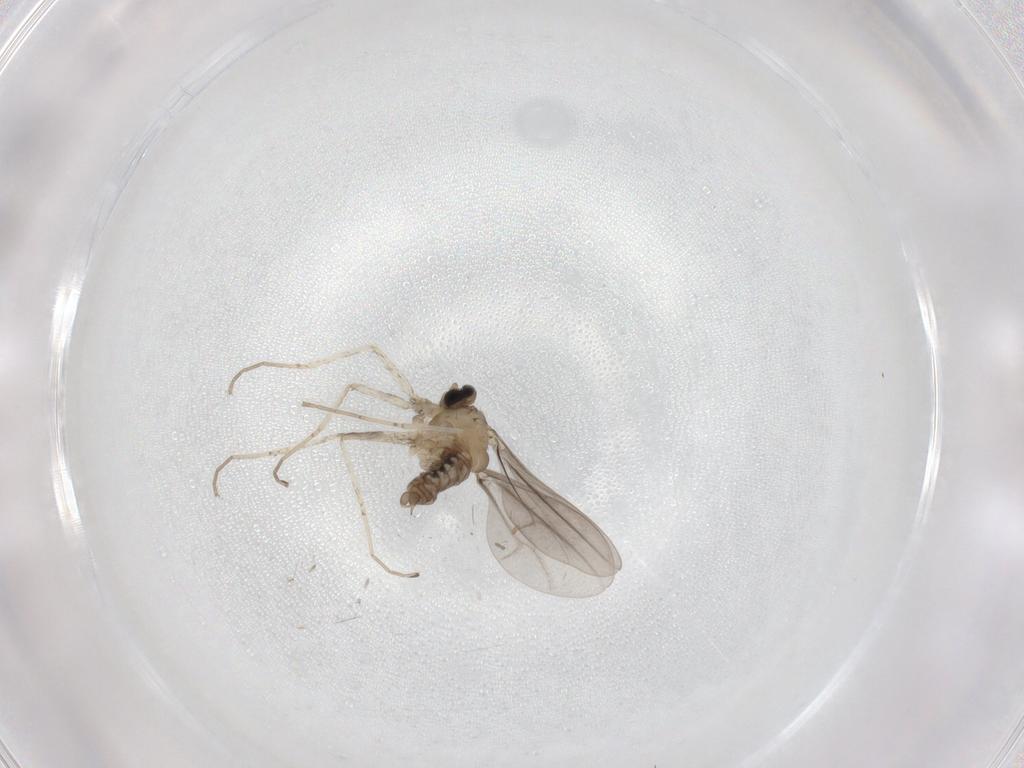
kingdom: Animalia
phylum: Arthropoda
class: Insecta
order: Diptera
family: Cecidomyiidae
